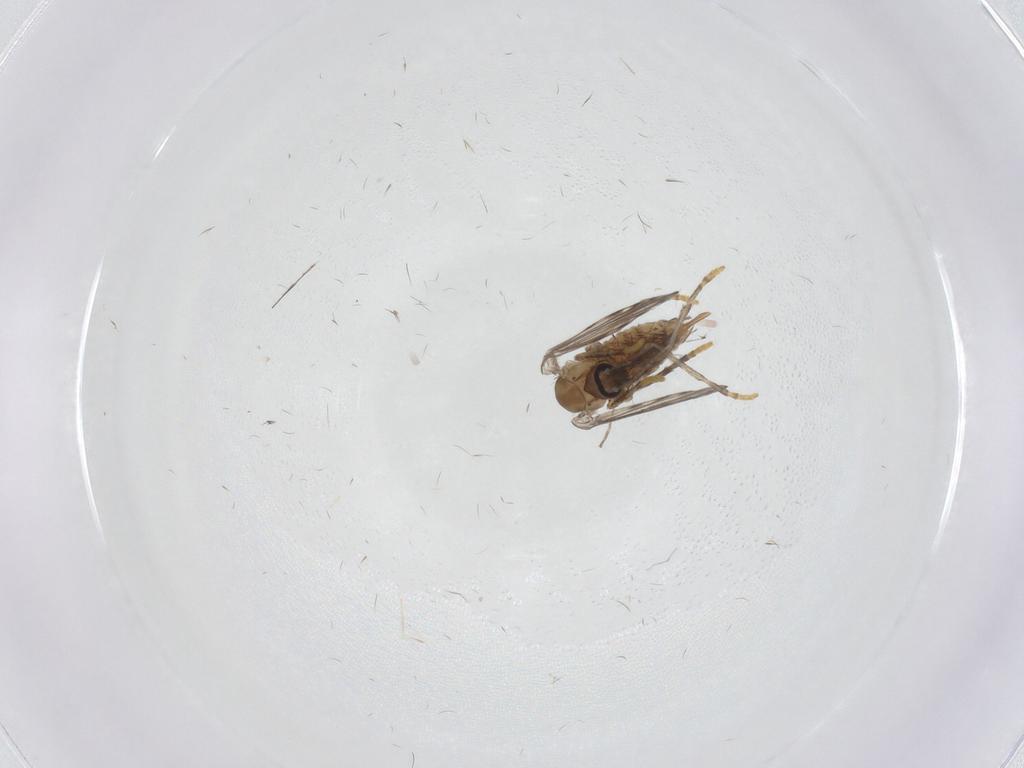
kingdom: Animalia
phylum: Arthropoda
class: Insecta
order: Diptera
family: Psychodidae
